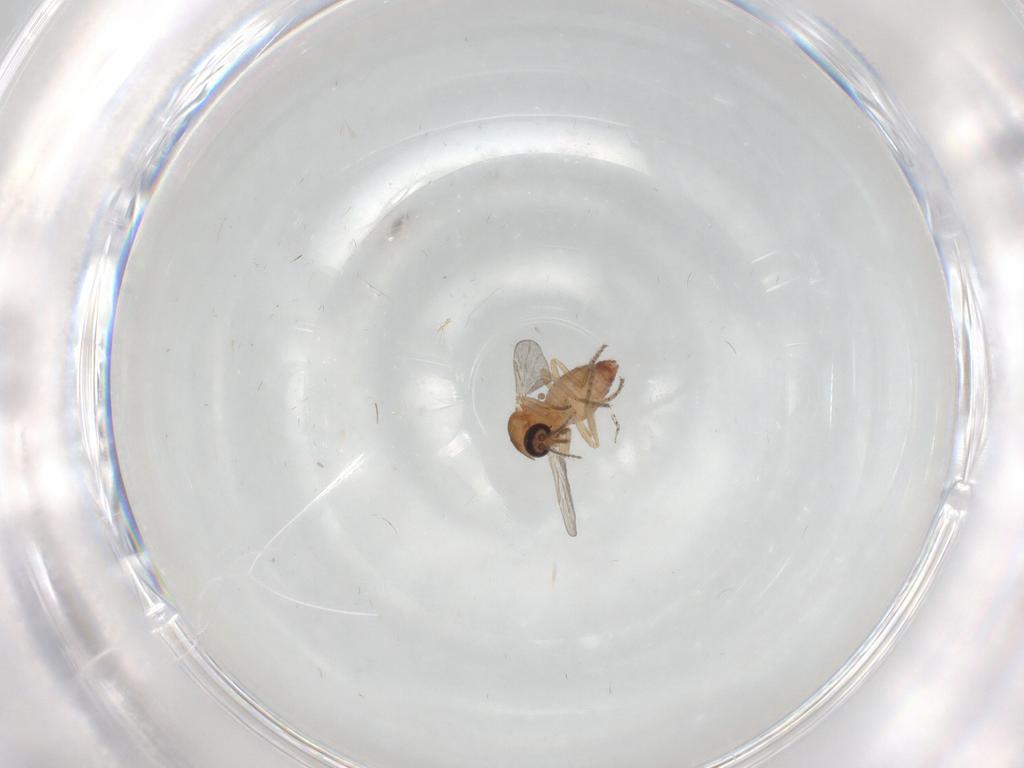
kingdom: Animalia
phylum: Arthropoda
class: Insecta
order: Diptera
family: Ceratopogonidae
